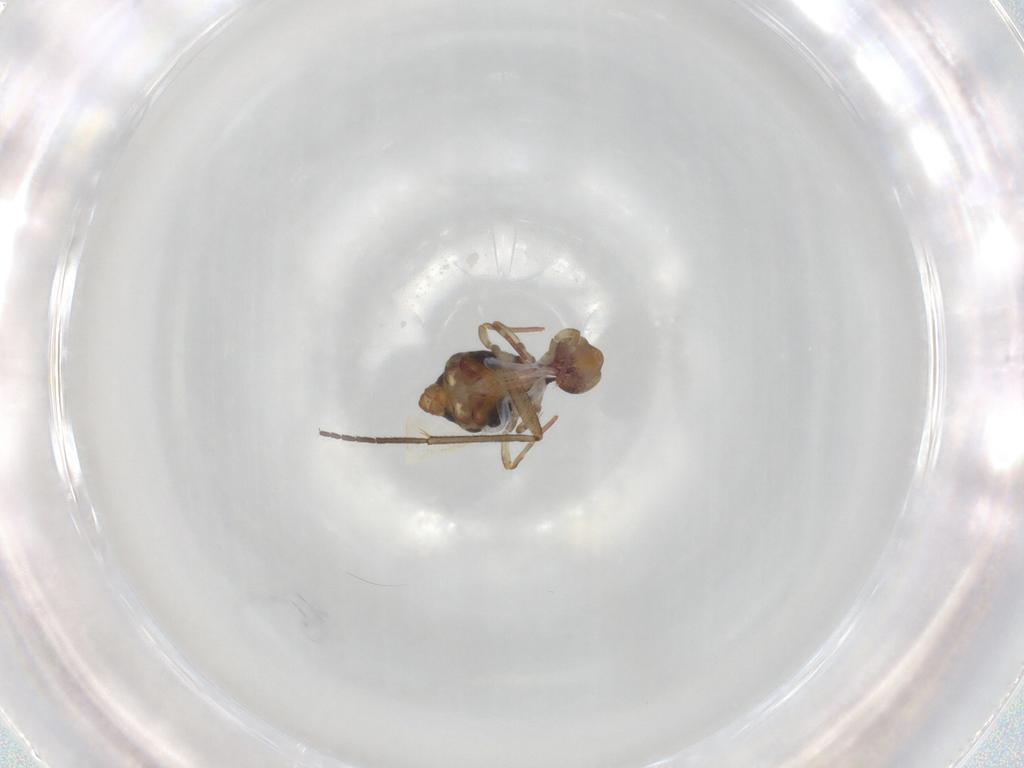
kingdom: Animalia
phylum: Arthropoda
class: Collembola
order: Symphypleona
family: Dicyrtomidae
